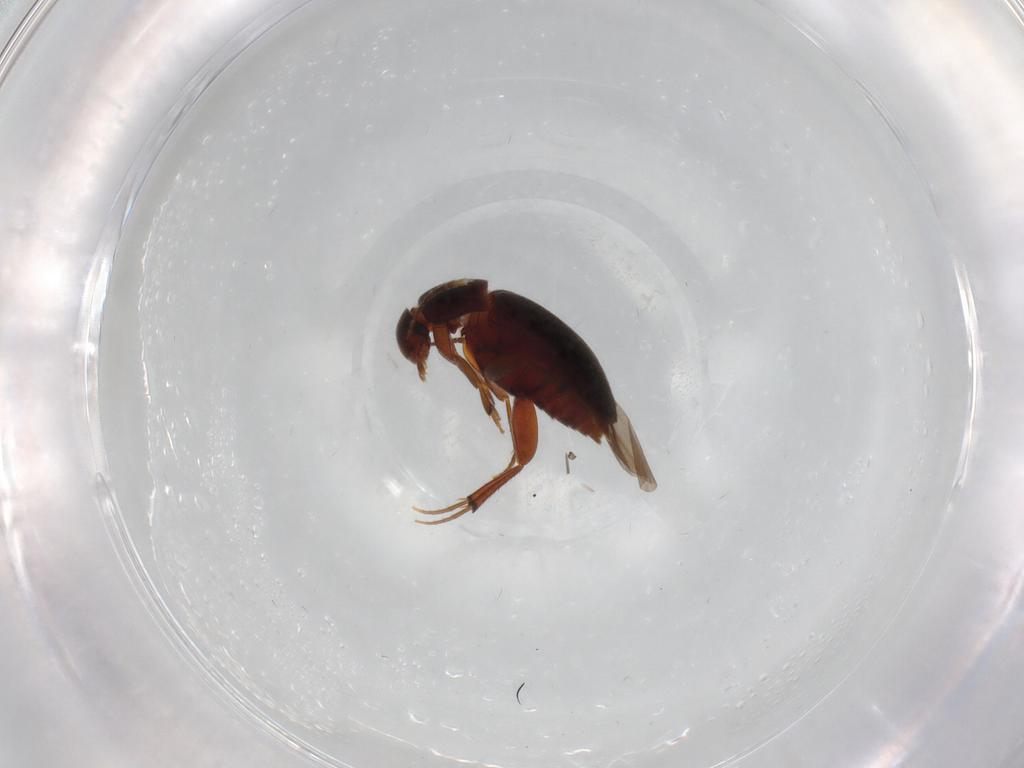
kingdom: Animalia
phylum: Arthropoda
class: Insecta
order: Coleoptera
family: Leiodidae
